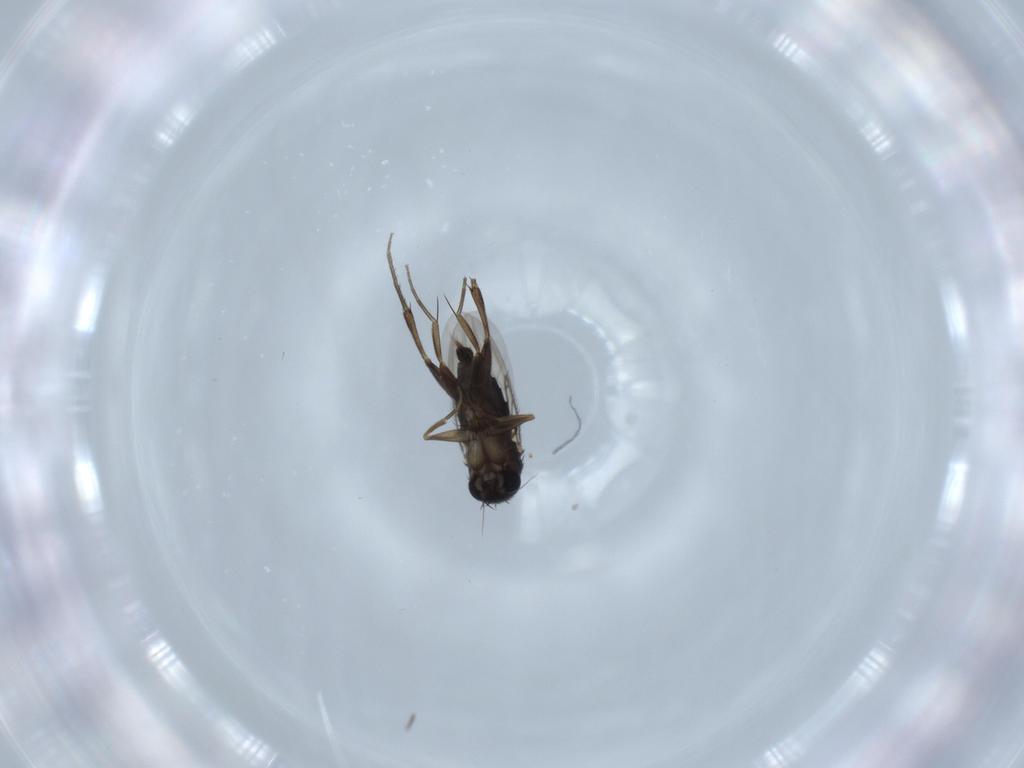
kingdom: Animalia
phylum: Arthropoda
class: Insecta
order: Diptera
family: Phoridae
